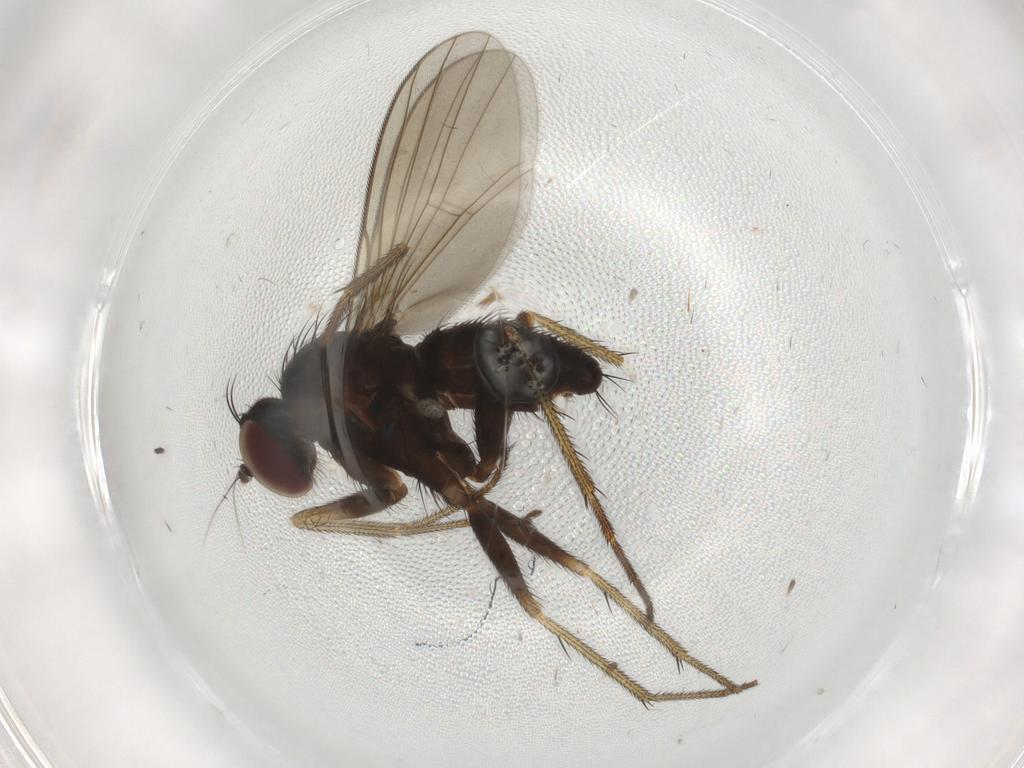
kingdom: Animalia
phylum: Arthropoda
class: Insecta
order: Diptera
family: Dolichopodidae
